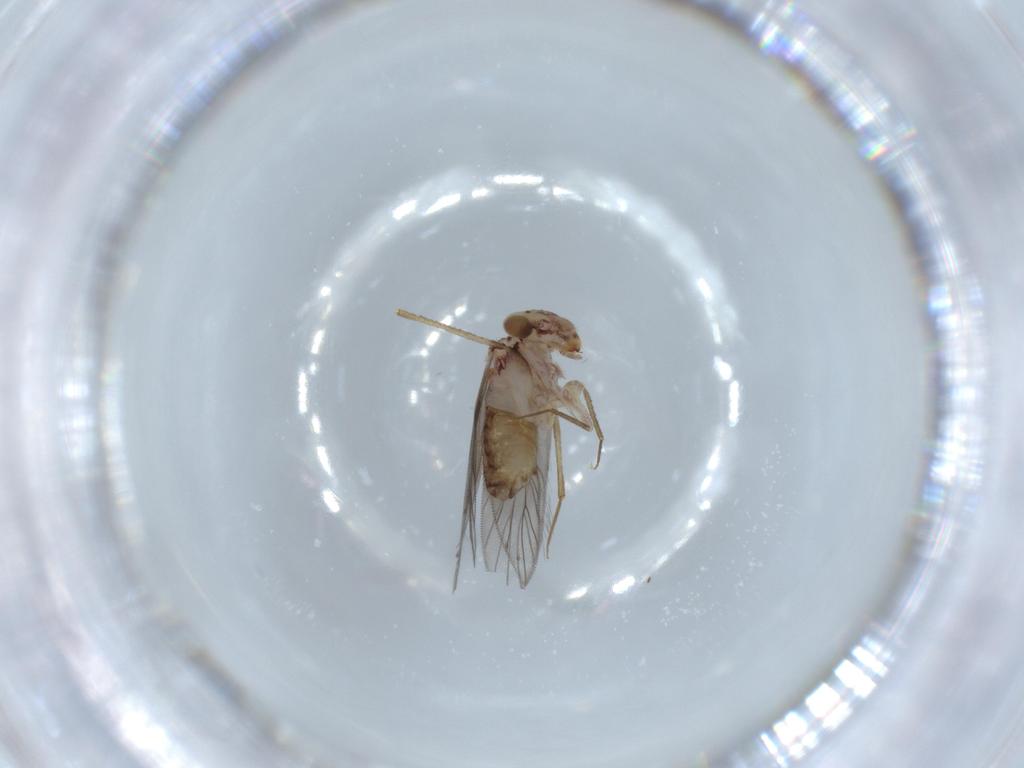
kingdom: Animalia
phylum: Arthropoda
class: Insecta
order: Psocodea
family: Lepidopsocidae
